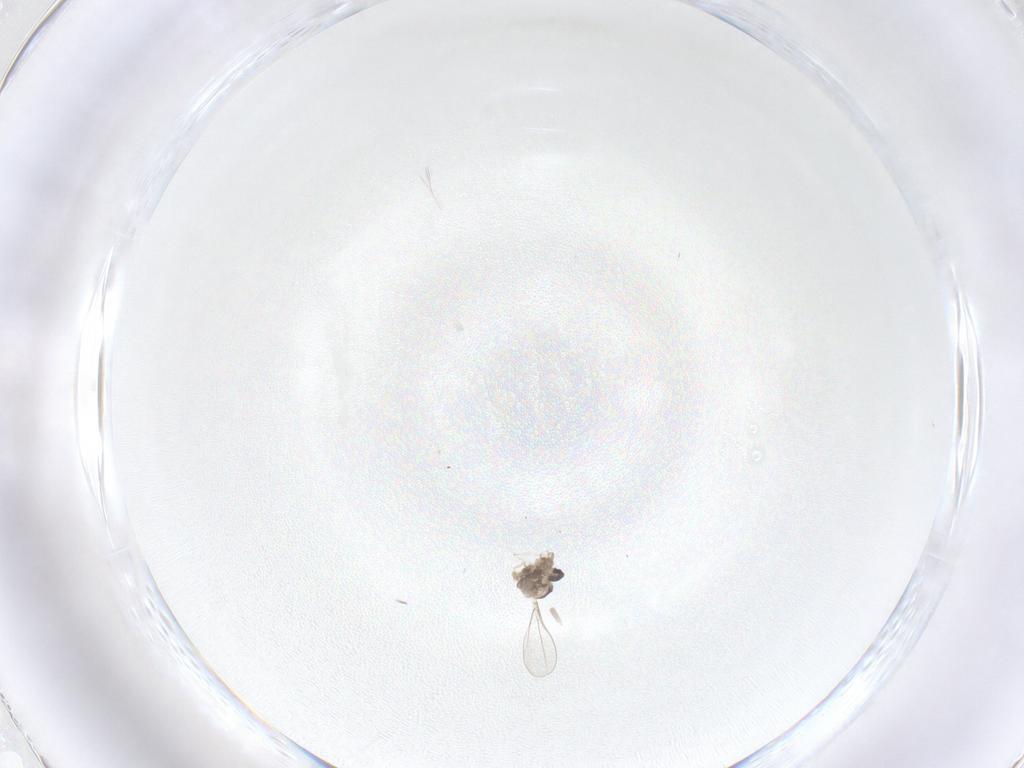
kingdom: Animalia
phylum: Arthropoda
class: Insecta
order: Diptera
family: Cecidomyiidae
